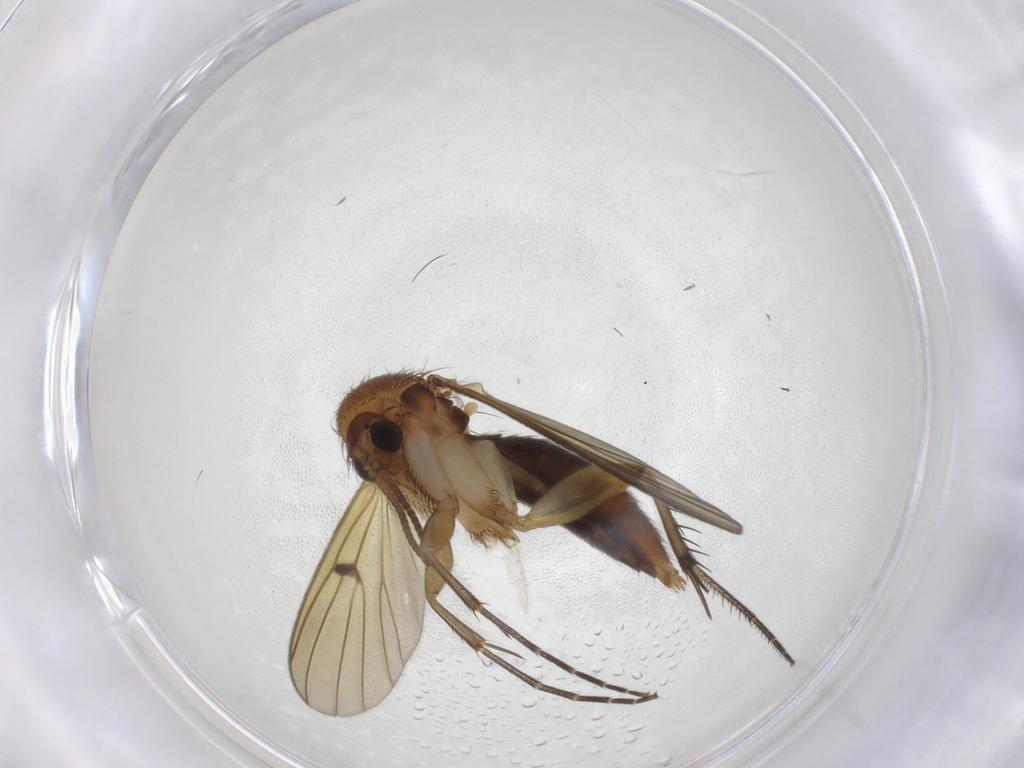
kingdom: Animalia
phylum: Arthropoda
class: Insecta
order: Diptera
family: Mycetophilidae
